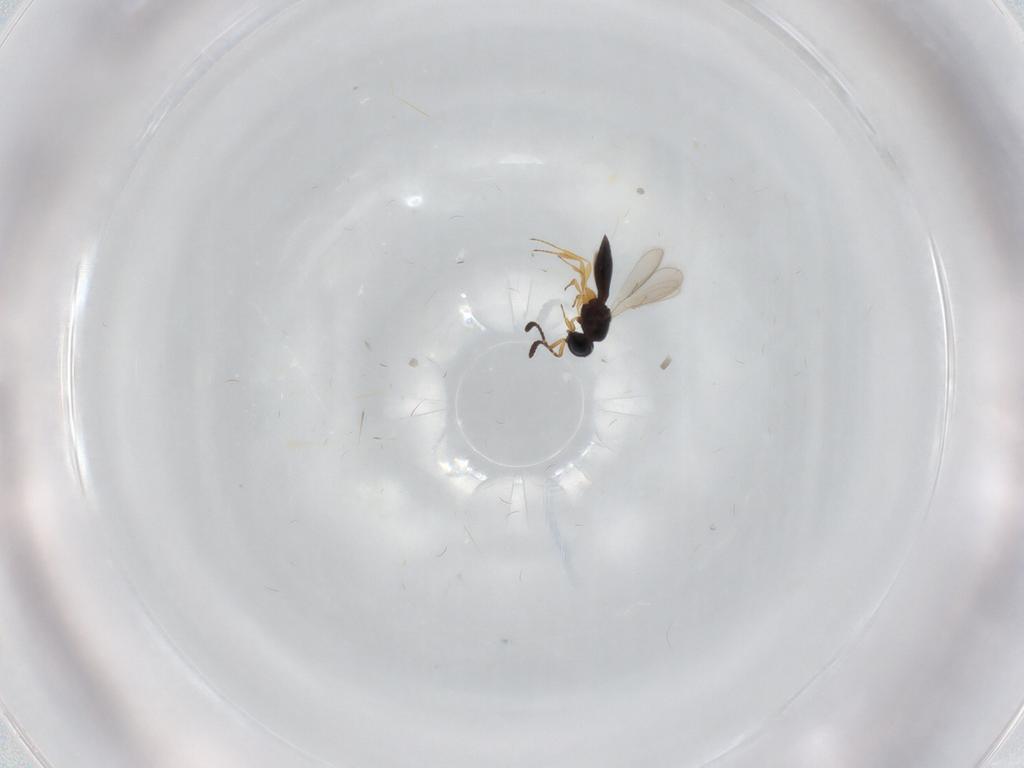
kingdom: Animalia
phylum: Arthropoda
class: Insecta
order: Hymenoptera
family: Scelionidae
